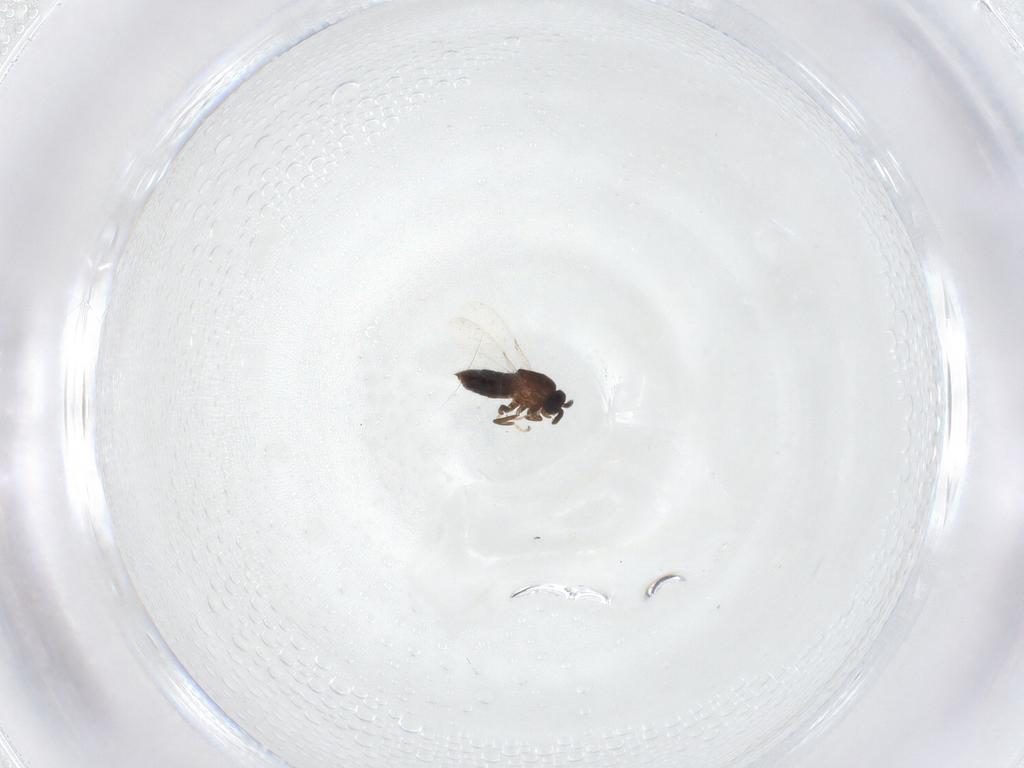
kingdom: Animalia
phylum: Arthropoda
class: Insecta
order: Diptera
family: Scatopsidae
